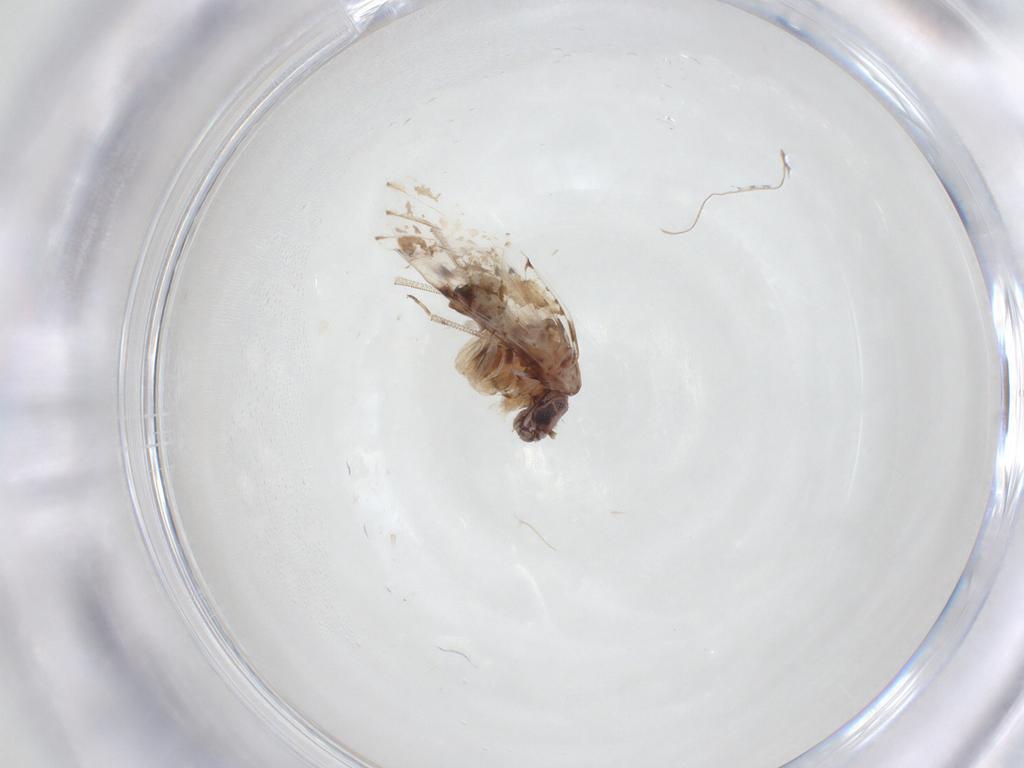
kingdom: Animalia
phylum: Arthropoda
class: Insecta
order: Psocodea
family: Psocidae
